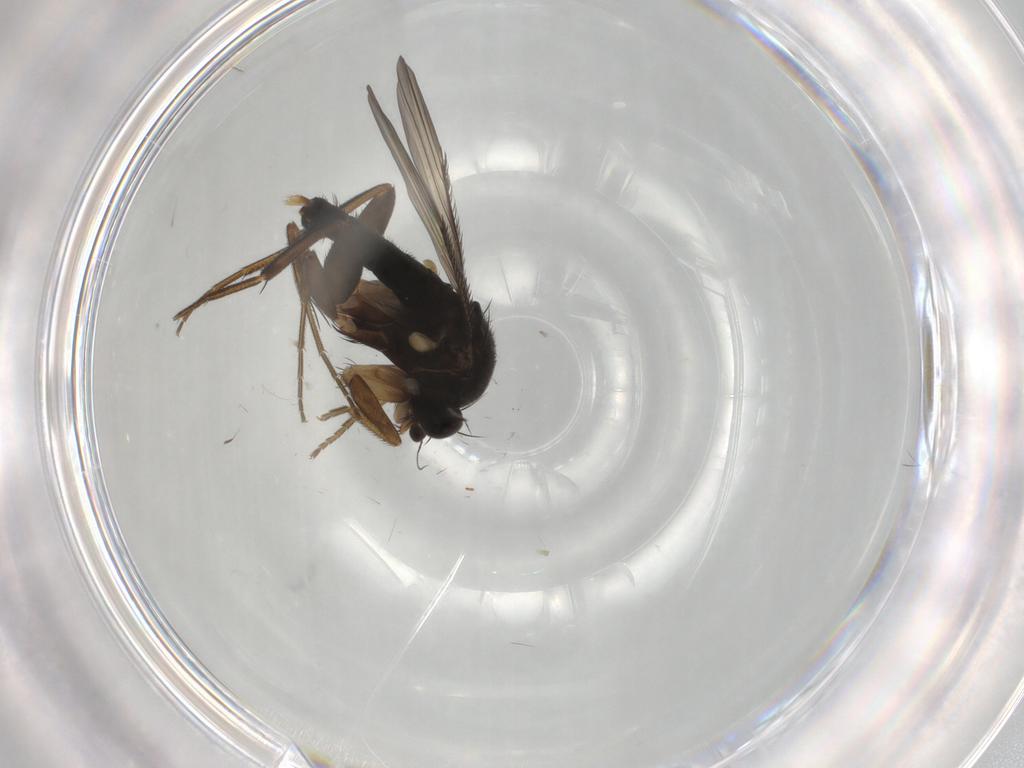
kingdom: Animalia
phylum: Arthropoda
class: Insecta
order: Diptera
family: Phoridae
